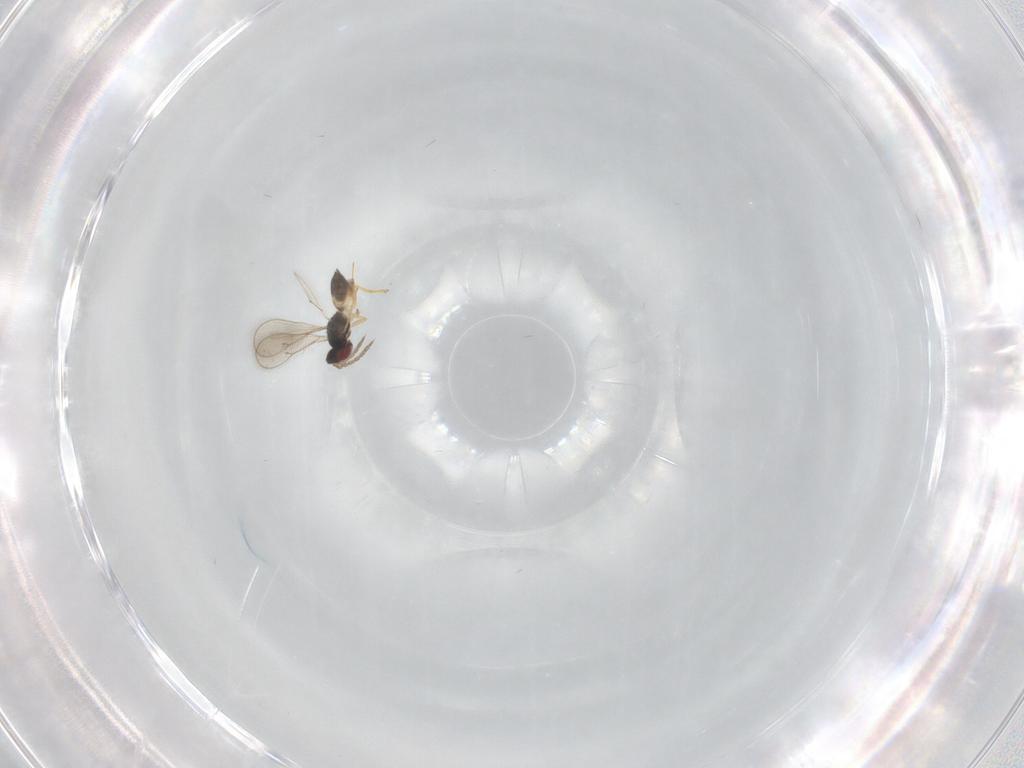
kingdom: Animalia
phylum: Arthropoda
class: Insecta
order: Hymenoptera
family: Eulophidae
